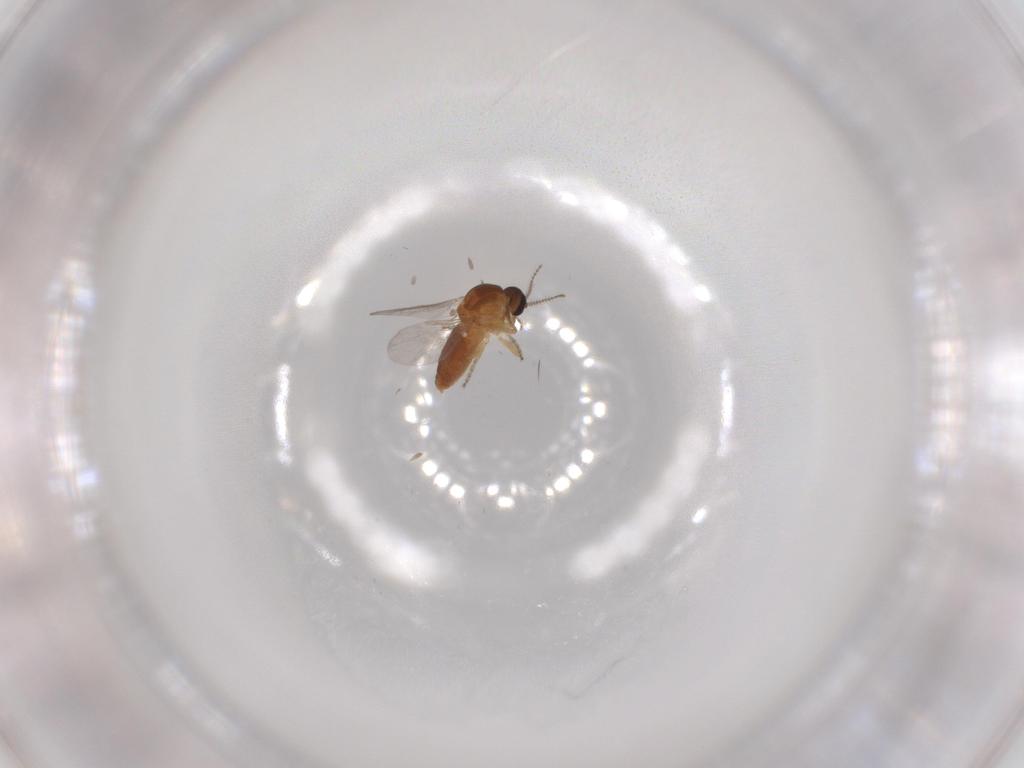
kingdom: Animalia
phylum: Arthropoda
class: Insecta
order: Diptera
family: Ceratopogonidae
